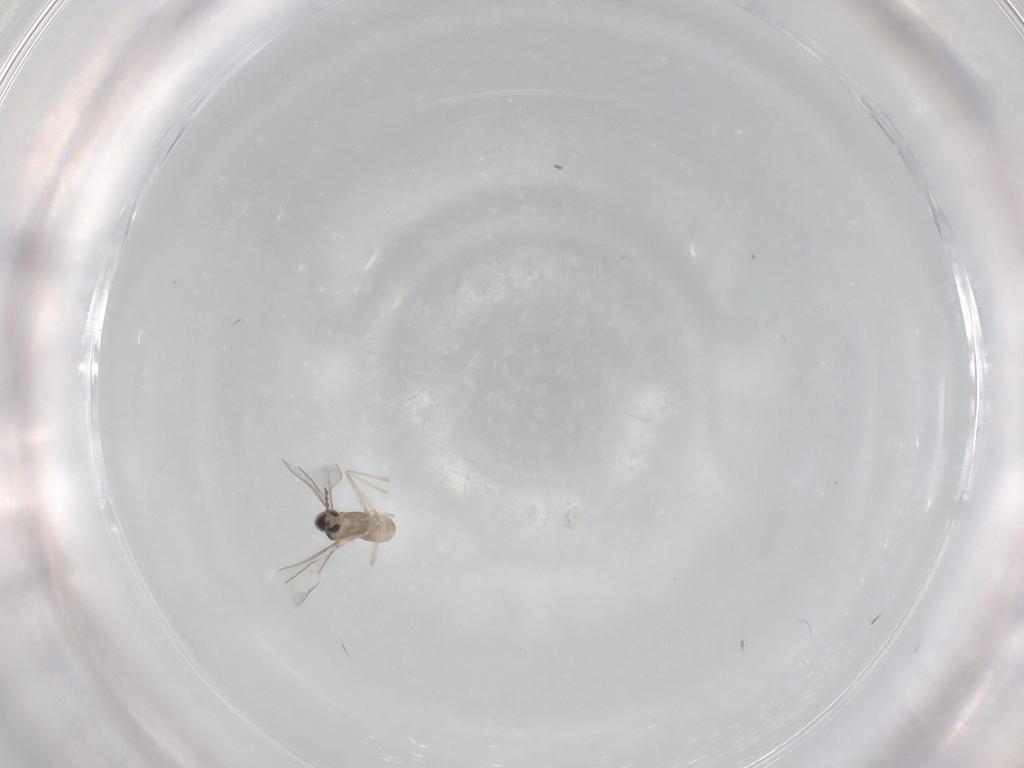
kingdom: Animalia
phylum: Arthropoda
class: Insecta
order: Diptera
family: Cecidomyiidae
